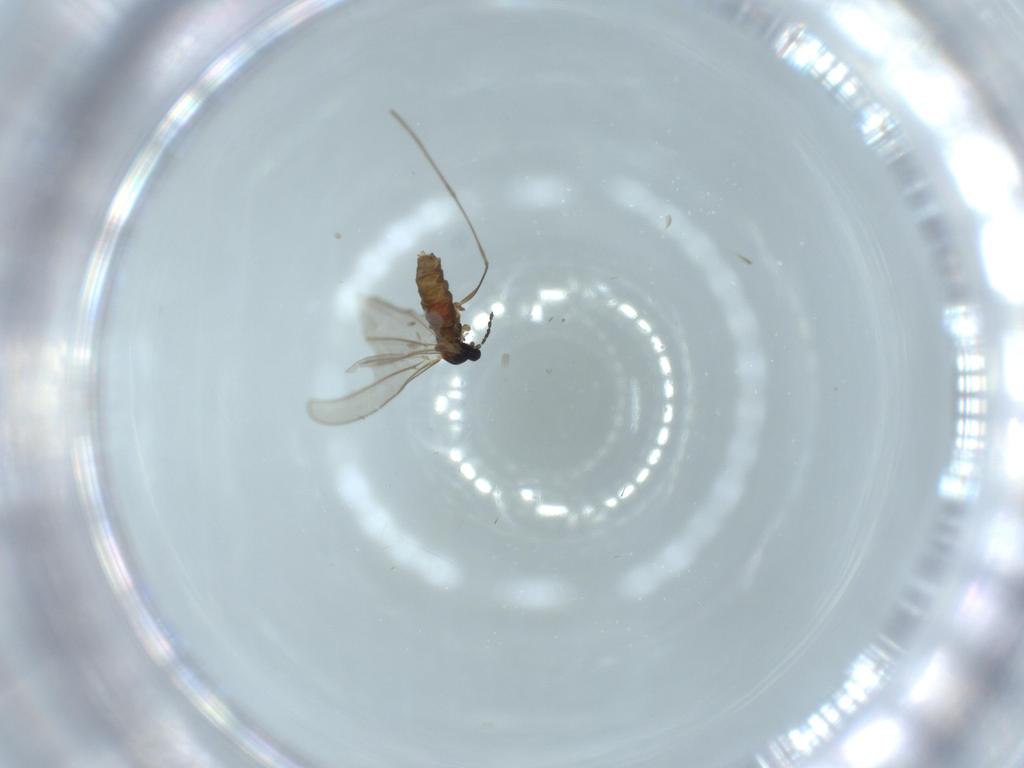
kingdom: Animalia
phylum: Arthropoda
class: Insecta
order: Diptera
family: Cecidomyiidae
